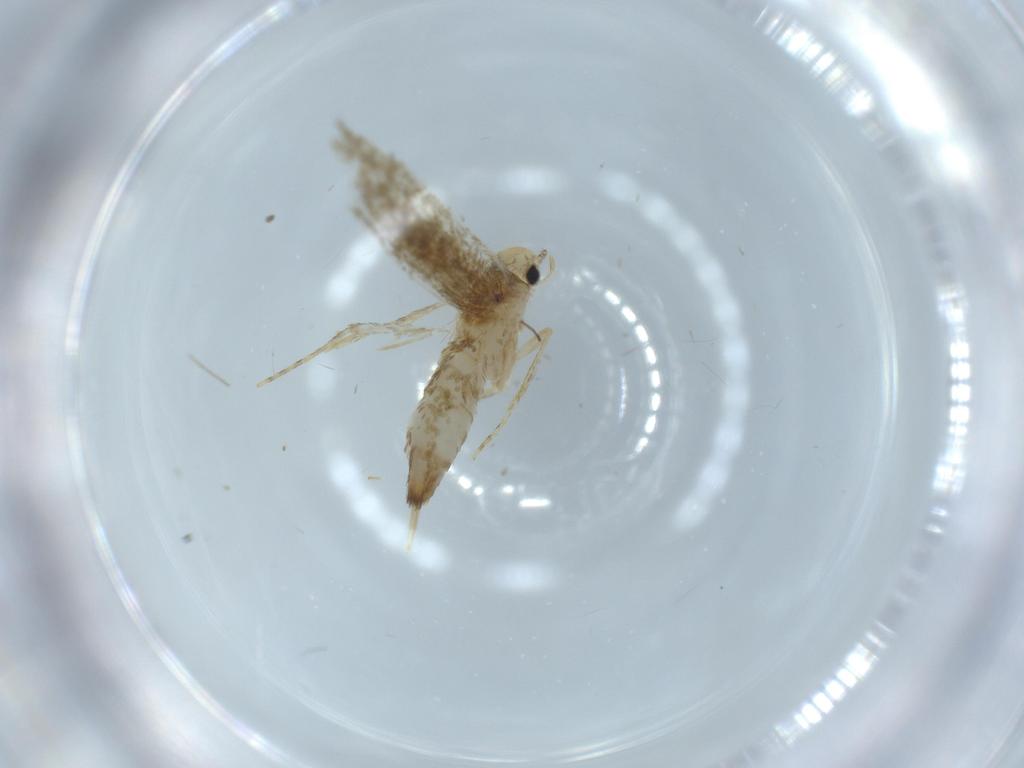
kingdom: Animalia
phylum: Arthropoda
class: Insecta
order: Lepidoptera
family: Tineidae
